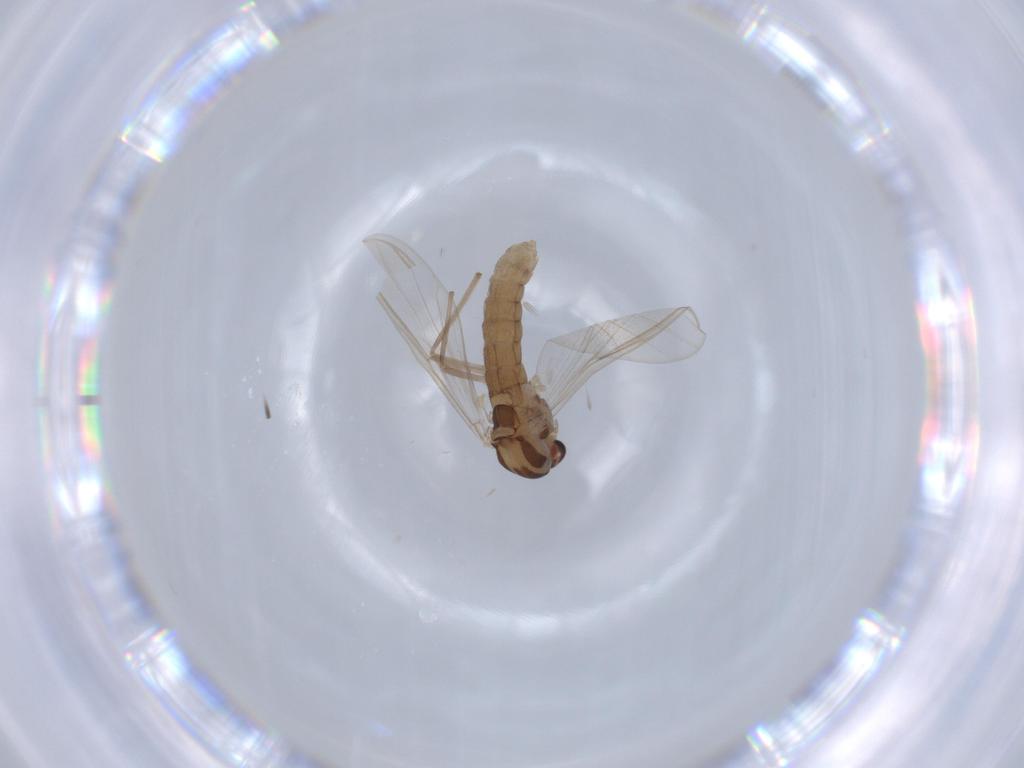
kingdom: Animalia
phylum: Arthropoda
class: Insecta
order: Diptera
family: Chironomidae
